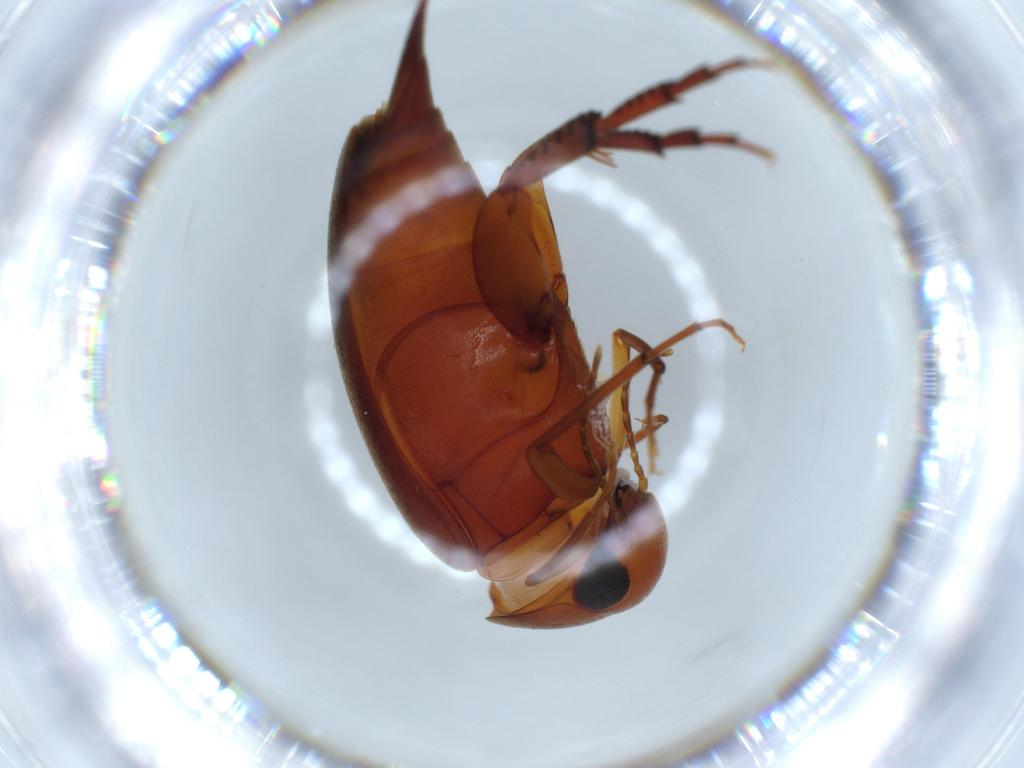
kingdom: Animalia
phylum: Arthropoda
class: Insecta
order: Coleoptera
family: Mordellidae
